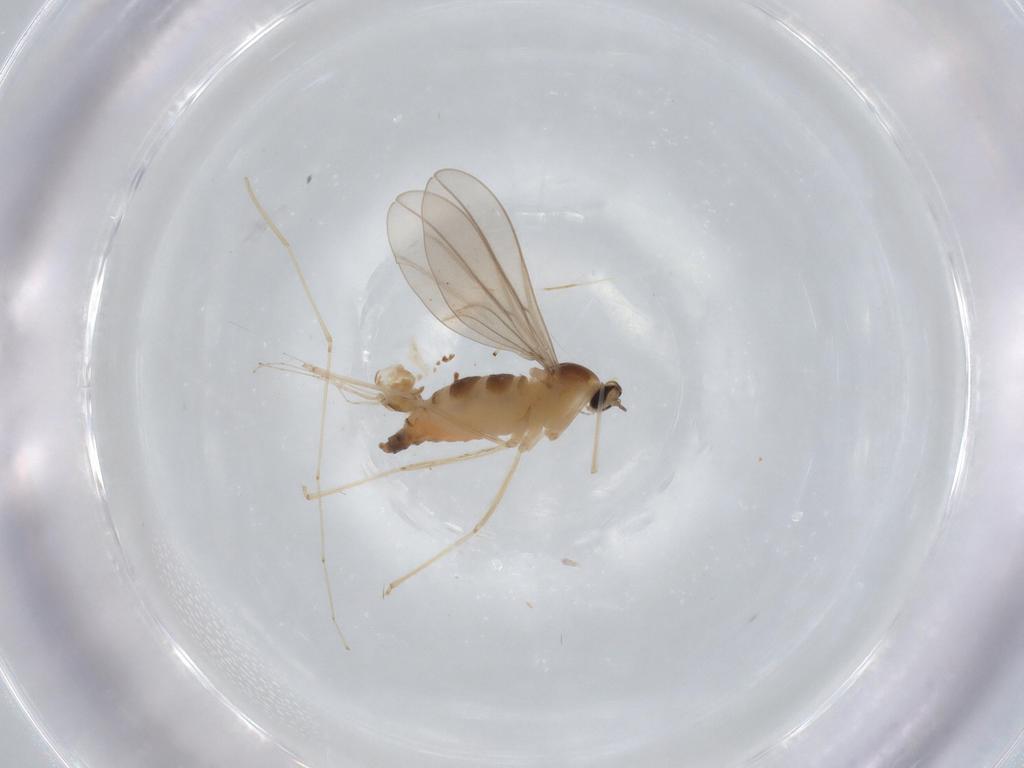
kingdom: Animalia
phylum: Arthropoda
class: Insecta
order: Diptera
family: Cecidomyiidae
